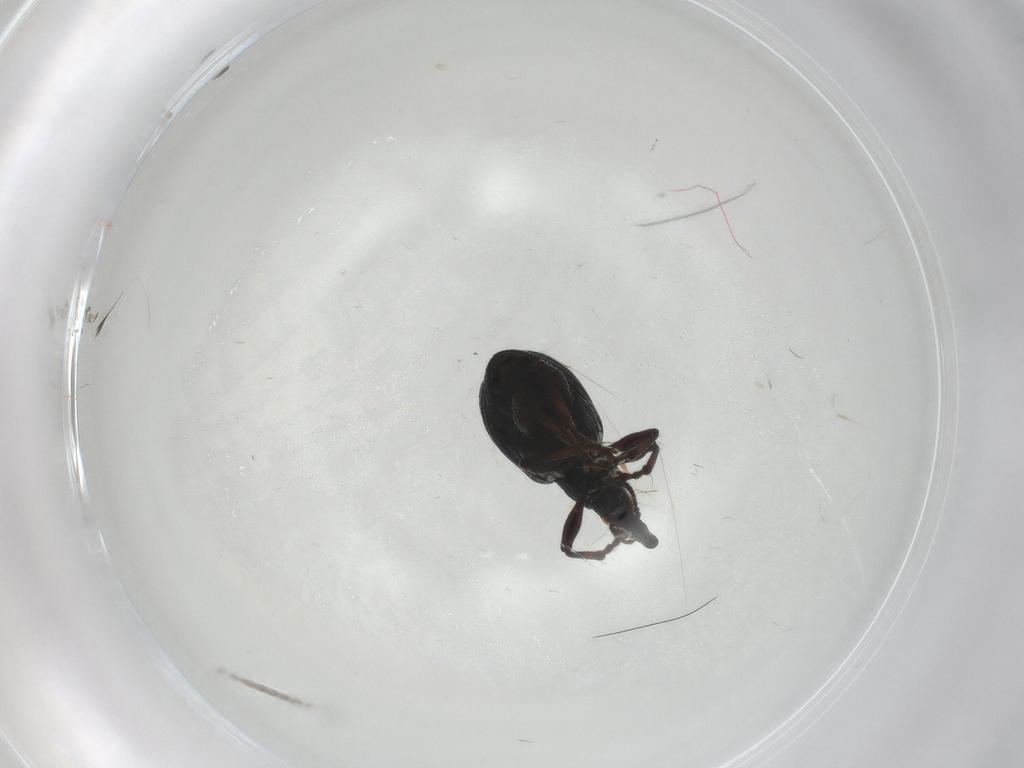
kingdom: Animalia
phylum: Arthropoda
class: Insecta
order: Coleoptera
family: Brentidae
